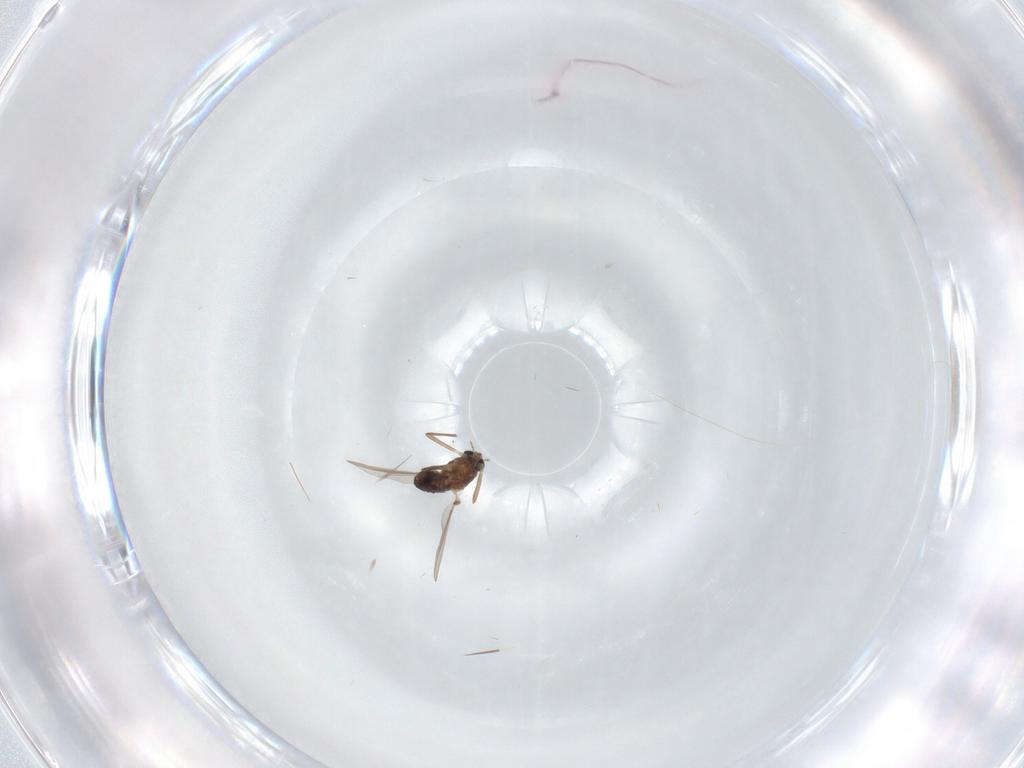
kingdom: Animalia
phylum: Arthropoda
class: Insecta
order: Diptera
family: Chironomidae
